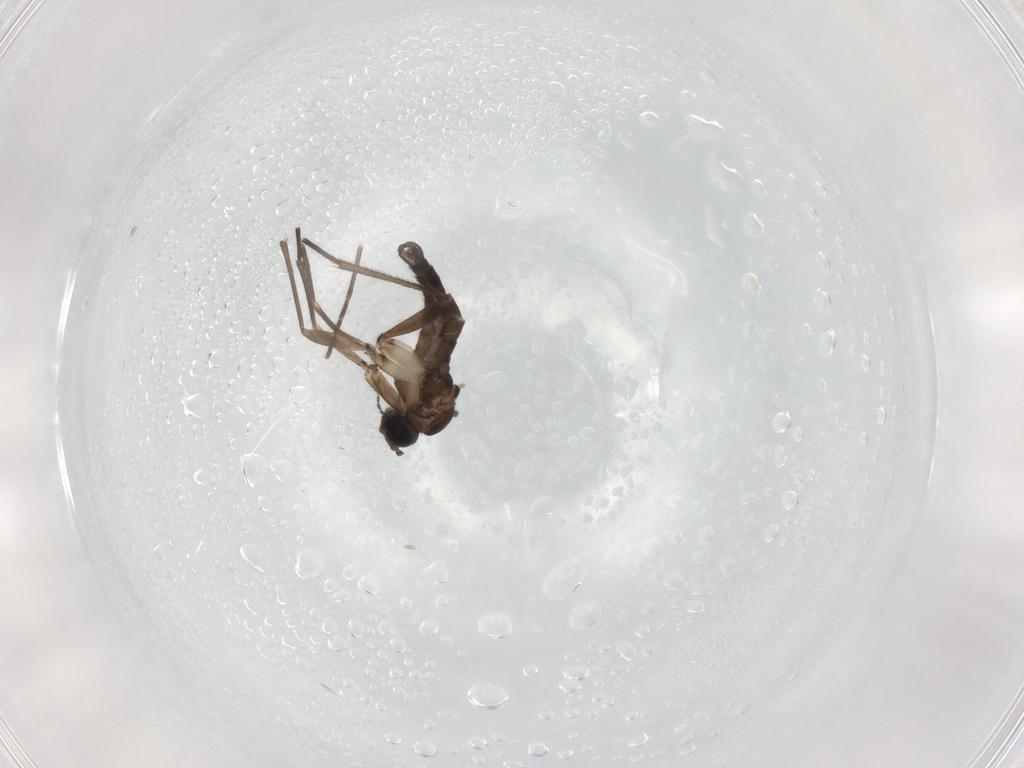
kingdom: Animalia
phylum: Arthropoda
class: Insecta
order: Diptera
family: Sciaridae
